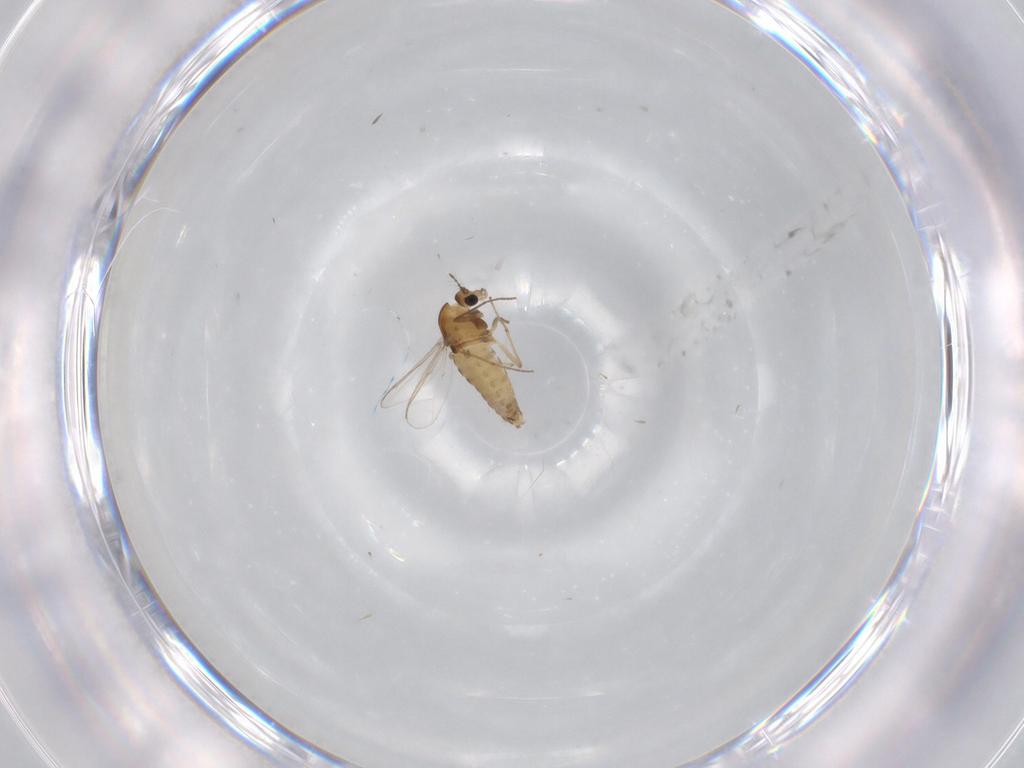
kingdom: Animalia
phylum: Arthropoda
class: Insecta
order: Diptera
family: Chironomidae
